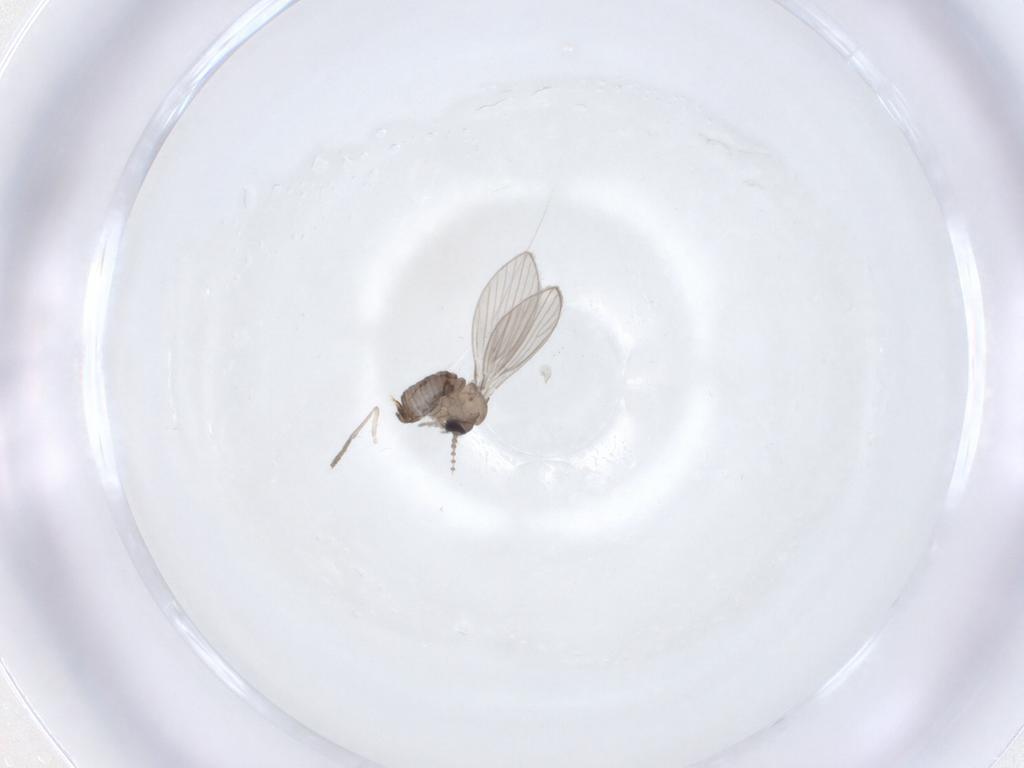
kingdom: Animalia
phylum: Arthropoda
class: Insecta
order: Diptera
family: Psychodidae
